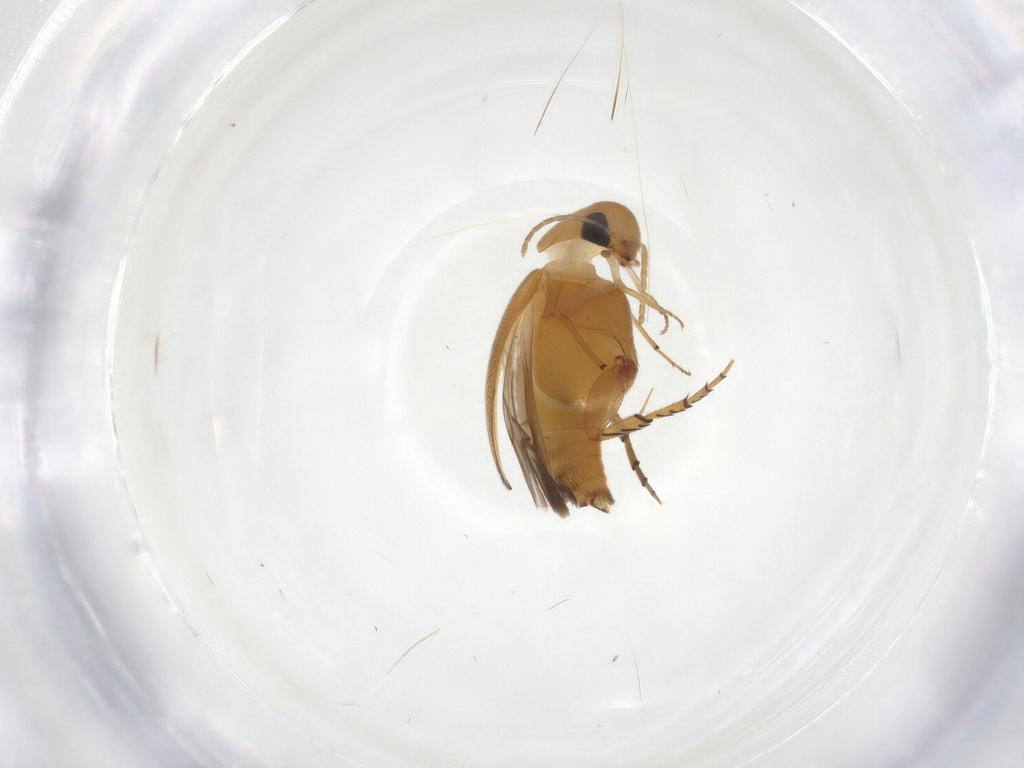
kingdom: Animalia
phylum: Arthropoda
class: Insecta
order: Coleoptera
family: Mordellidae
